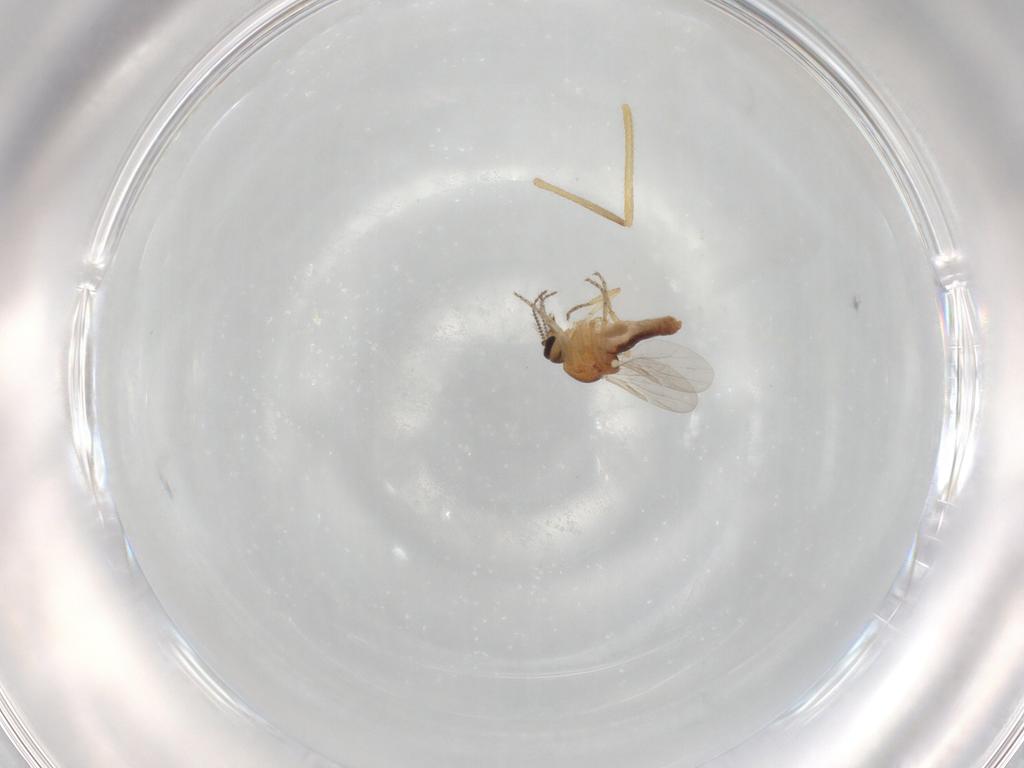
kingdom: Animalia
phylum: Arthropoda
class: Insecta
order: Diptera
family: Ceratopogonidae
